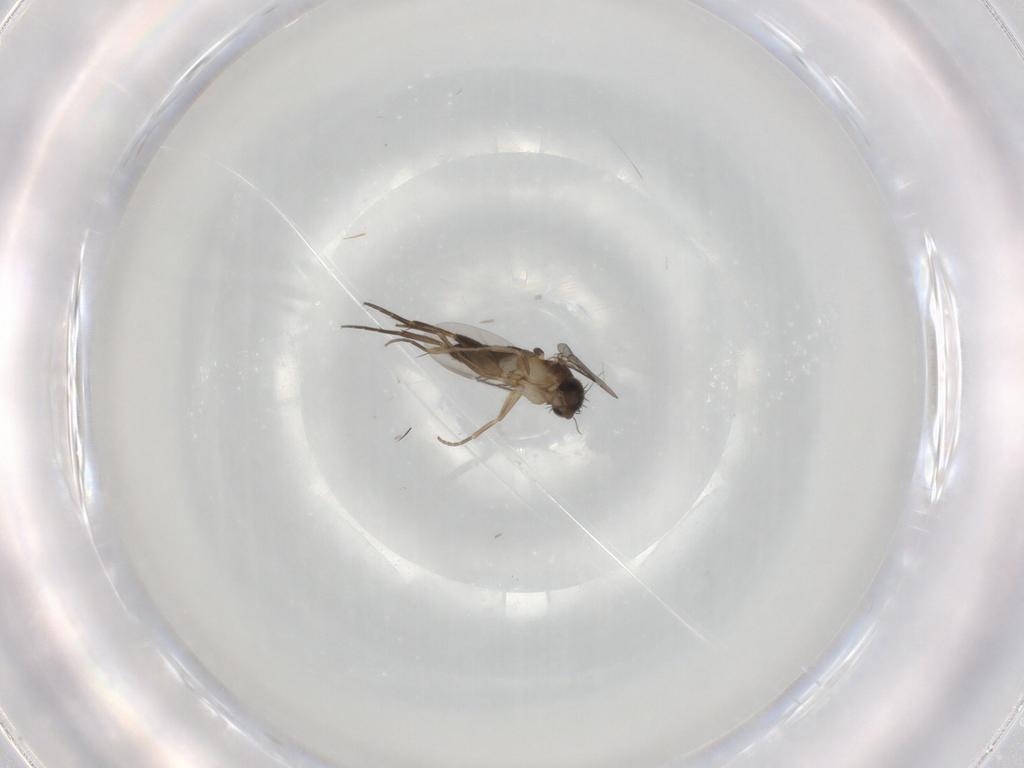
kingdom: Animalia
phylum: Arthropoda
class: Insecta
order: Diptera
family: Phoridae
